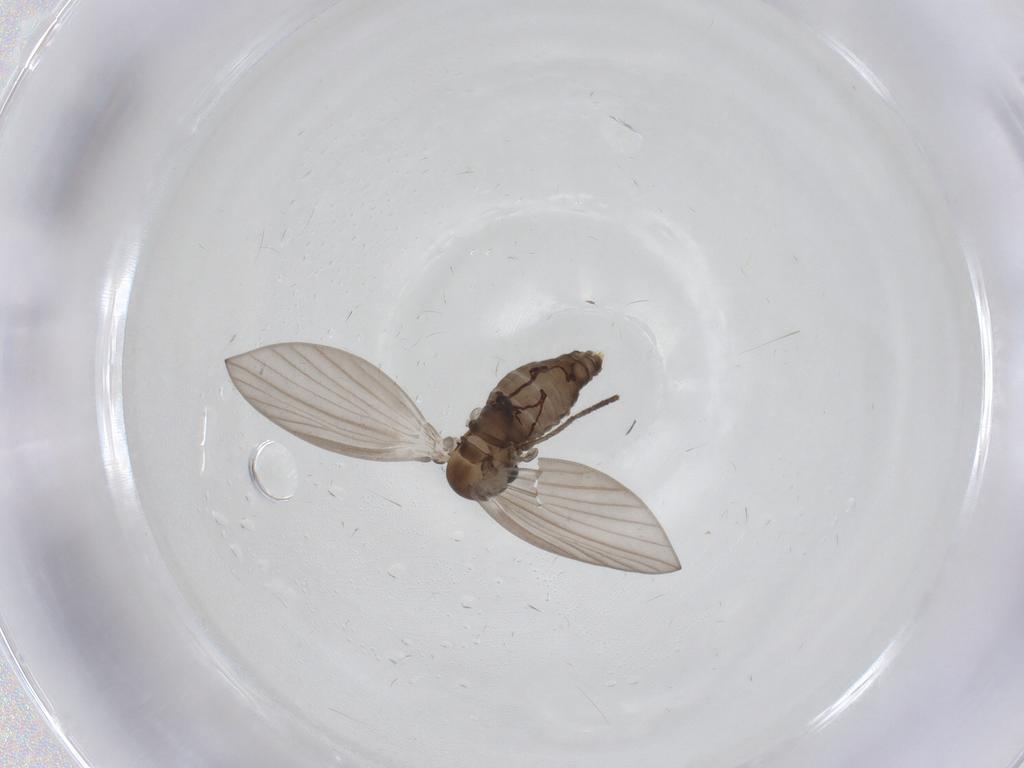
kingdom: Animalia
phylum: Arthropoda
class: Insecta
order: Diptera
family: Psychodidae
